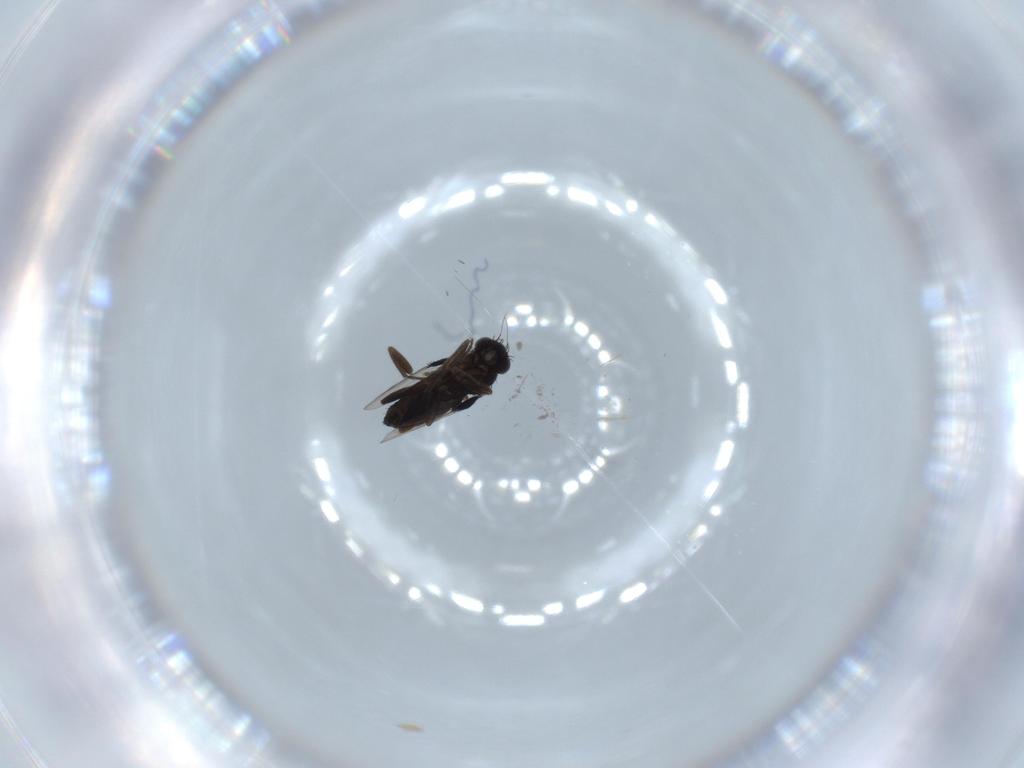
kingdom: Animalia
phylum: Arthropoda
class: Insecta
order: Diptera
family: Phoridae
